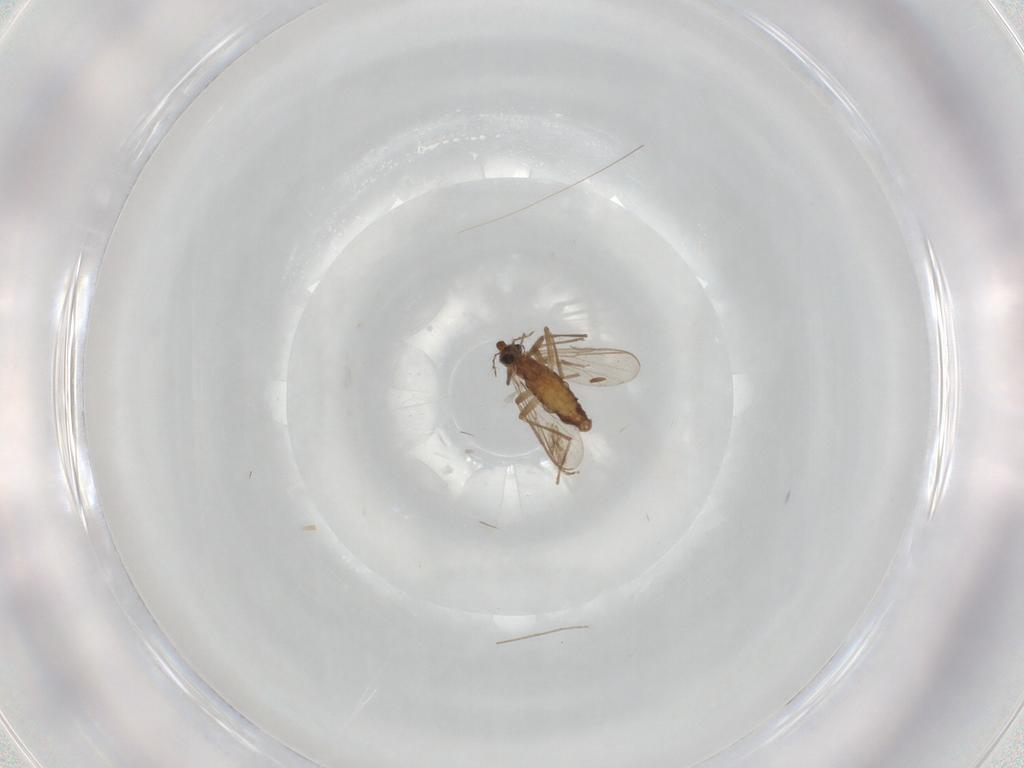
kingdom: Animalia
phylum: Arthropoda
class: Insecta
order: Diptera
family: Chironomidae
